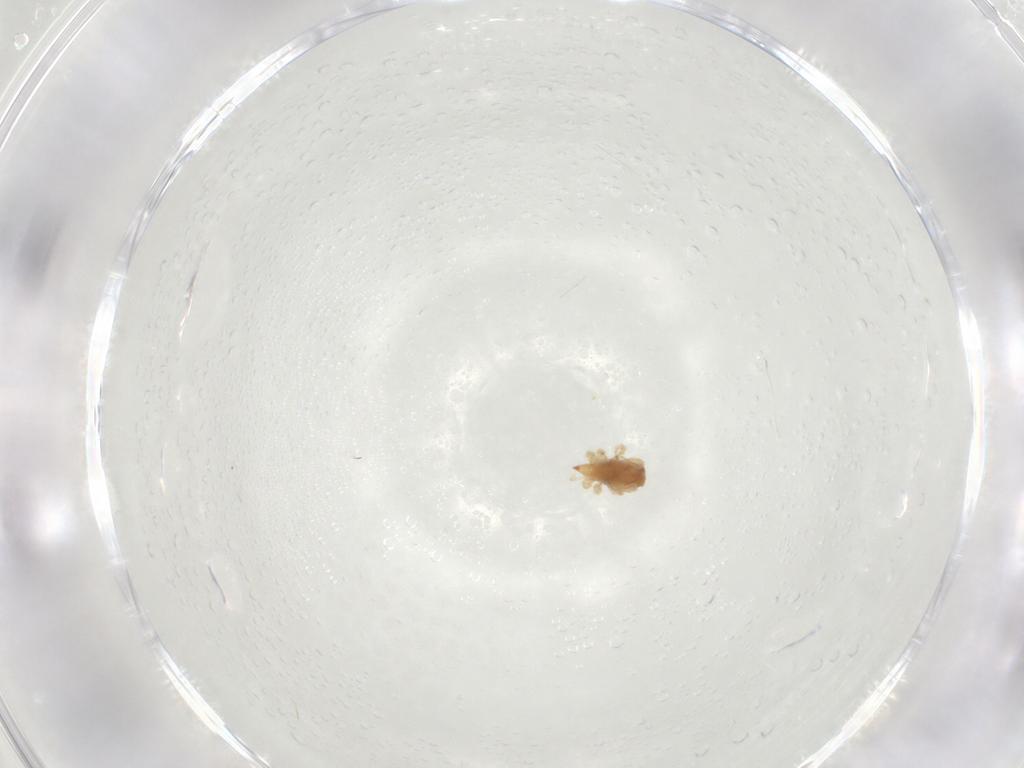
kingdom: Animalia
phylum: Arthropoda
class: Arachnida
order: Trombidiformes
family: Bdellidae
